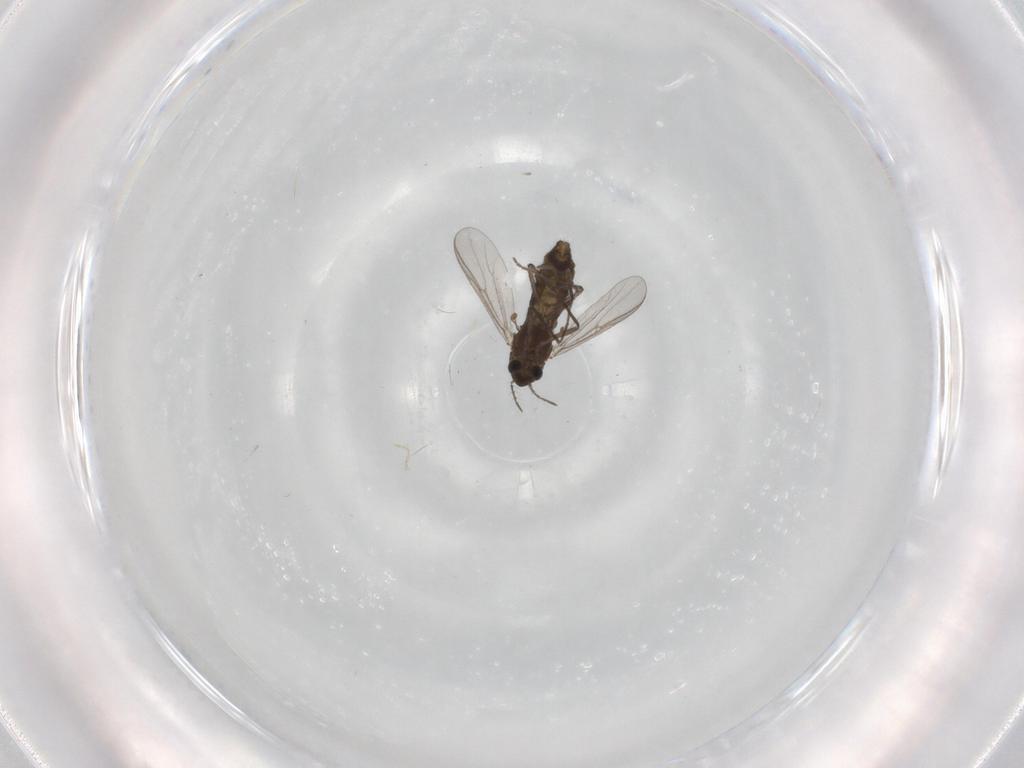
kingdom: Animalia
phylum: Arthropoda
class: Insecta
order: Diptera
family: Chironomidae
